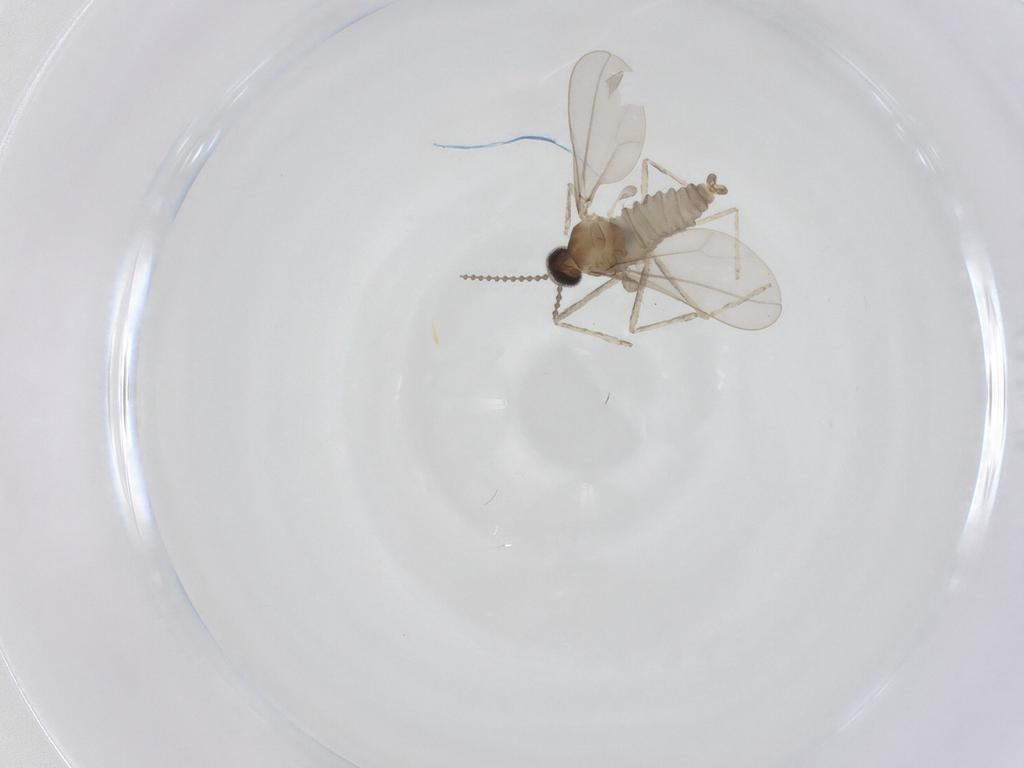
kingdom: Animalia
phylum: Arthropoda
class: Insecta
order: Diptera
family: Cecidomyiidae
